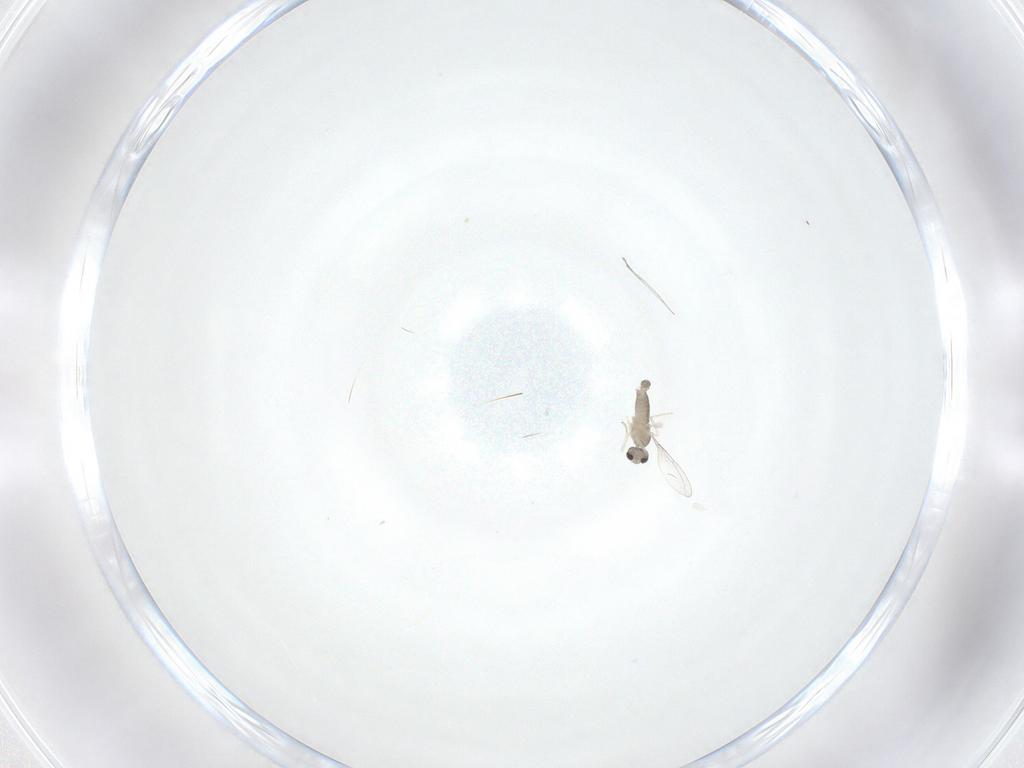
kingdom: Animalia
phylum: Arthropoda
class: Insecta
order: Diptera
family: Cecidomyiidae
